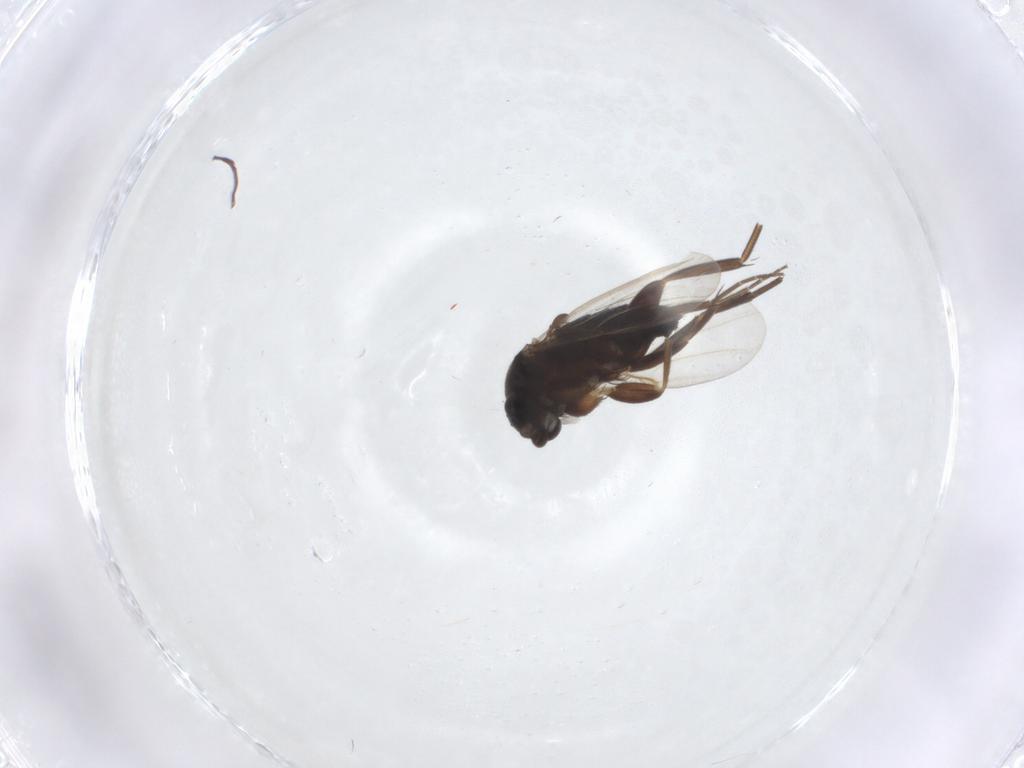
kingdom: Animalia
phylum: Arthropoda
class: Insecta
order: Diptera
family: Phoridae
